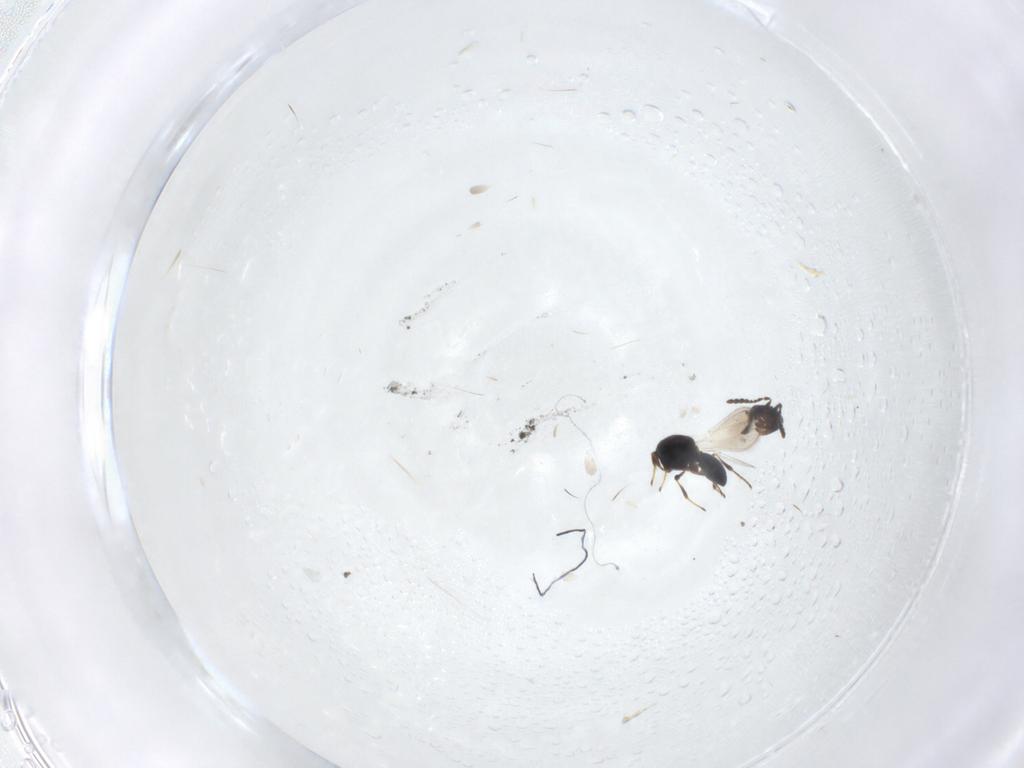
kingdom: Animalia
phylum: Arthropoda
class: Insecta
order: Hymenoptera
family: Platygastridae
